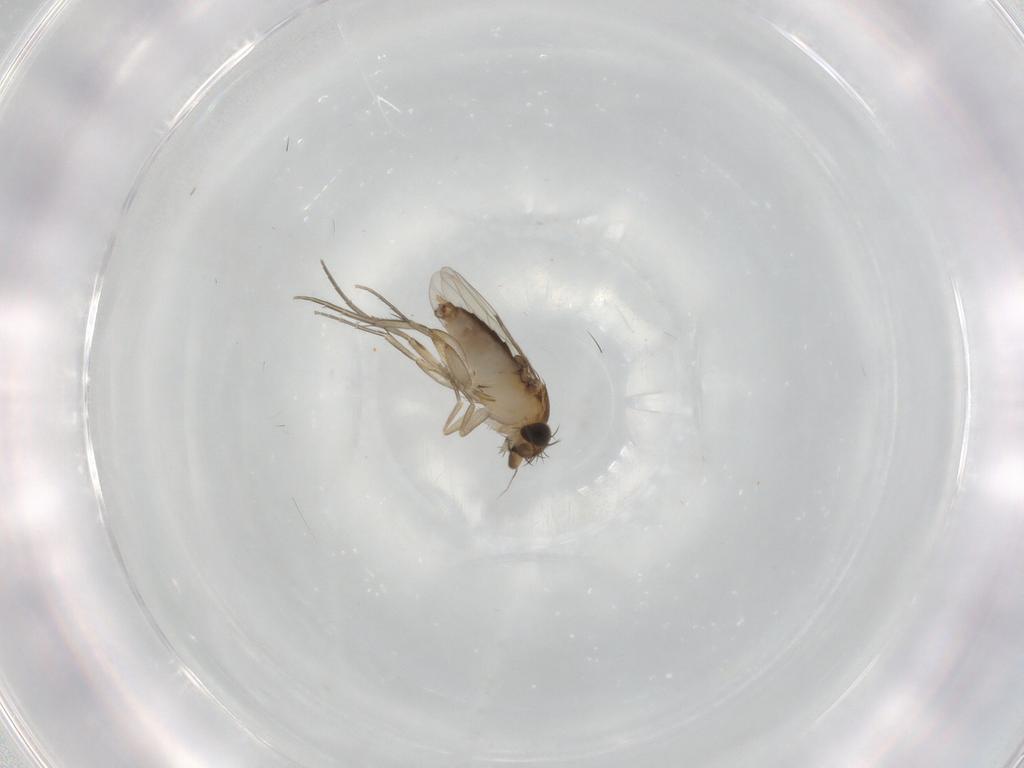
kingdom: Animalia
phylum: Arthropoda
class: Insecta
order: Diptera
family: Phoridae
